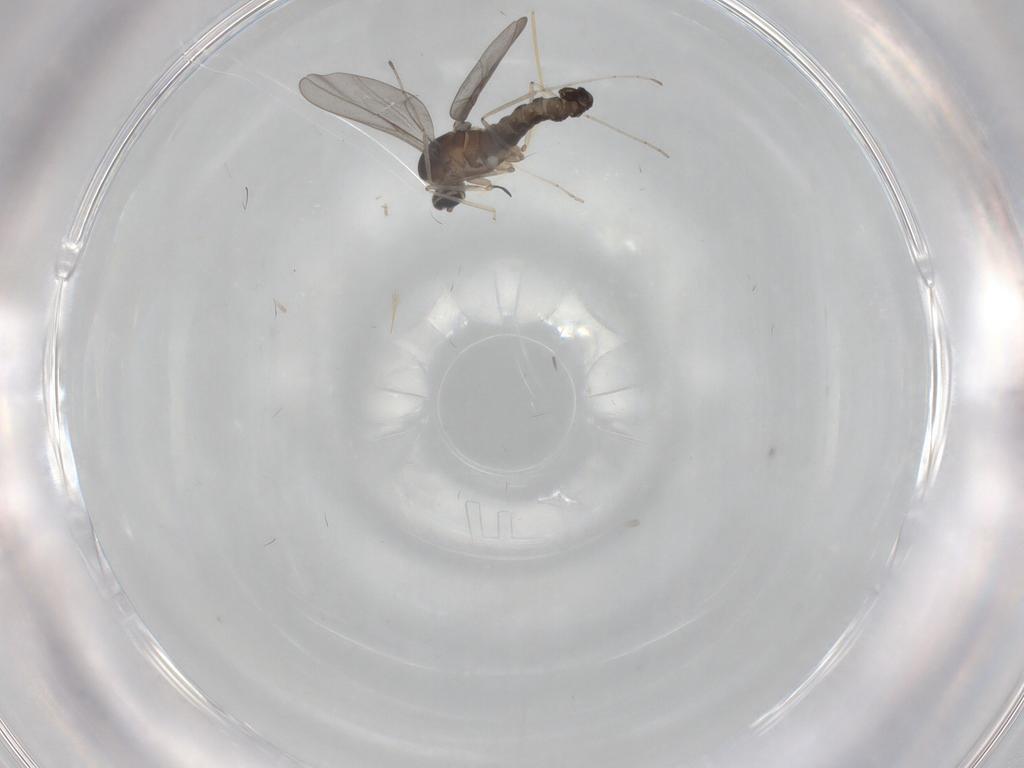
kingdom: Animalia
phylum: Arthropoda
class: Insecta
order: Diptera
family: Cecidomyiidae
